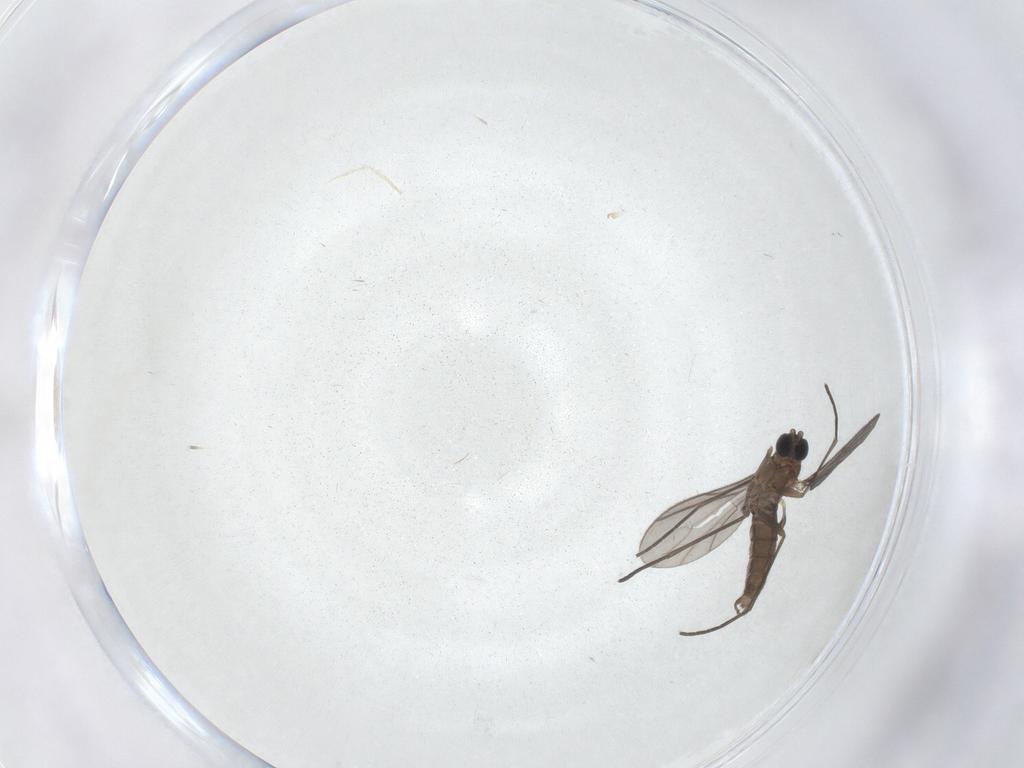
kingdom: Animalia
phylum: Arthropoda
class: Insecta
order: Diptera
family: Sciaridae
